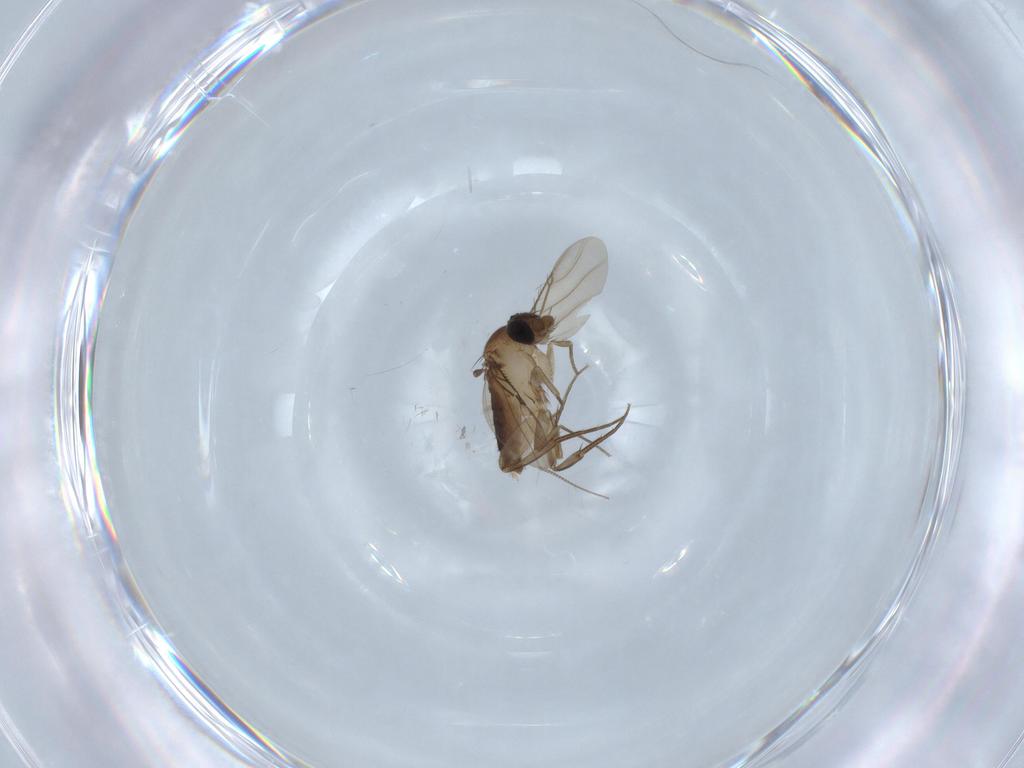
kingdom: Animalia
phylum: Arthropoda
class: Insecta
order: Diptera
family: Phoridae
